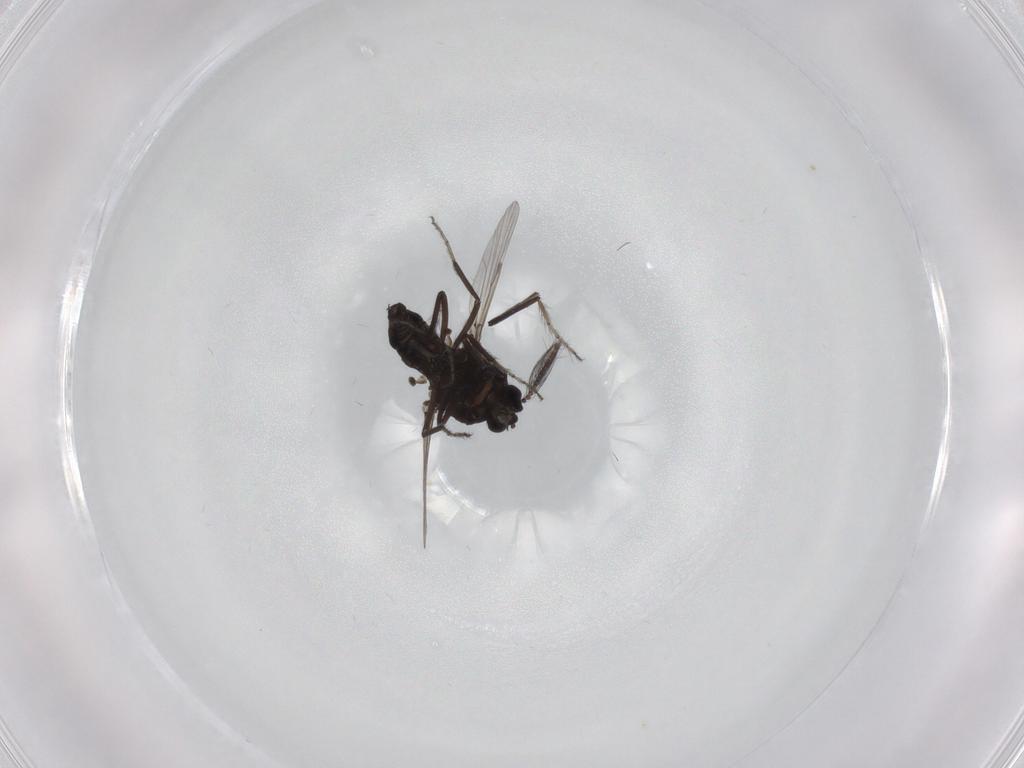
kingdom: Animalia
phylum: Arthropoda
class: Insecta
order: Diptera
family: Ceratopogonidae
